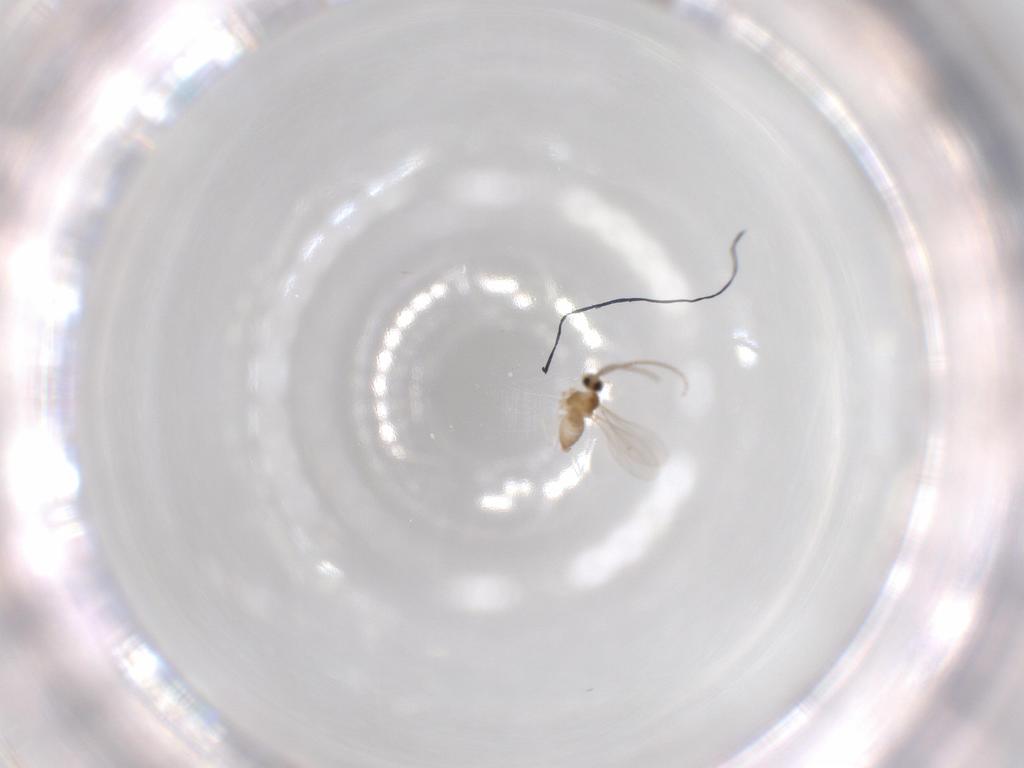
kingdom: Animalia
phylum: Arthropoda
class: Insecta
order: Diptera
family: Cecidomyiidae
